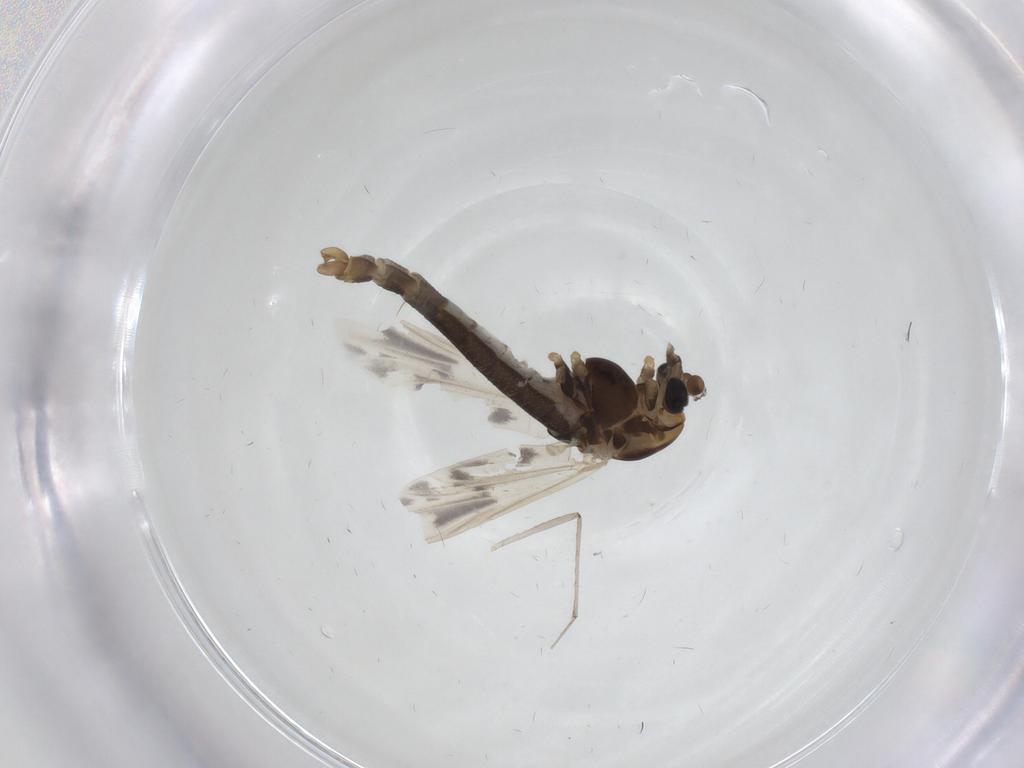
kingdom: Animalia
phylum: Arthropoda
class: Insecta
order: Diptera
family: Chironomidae
